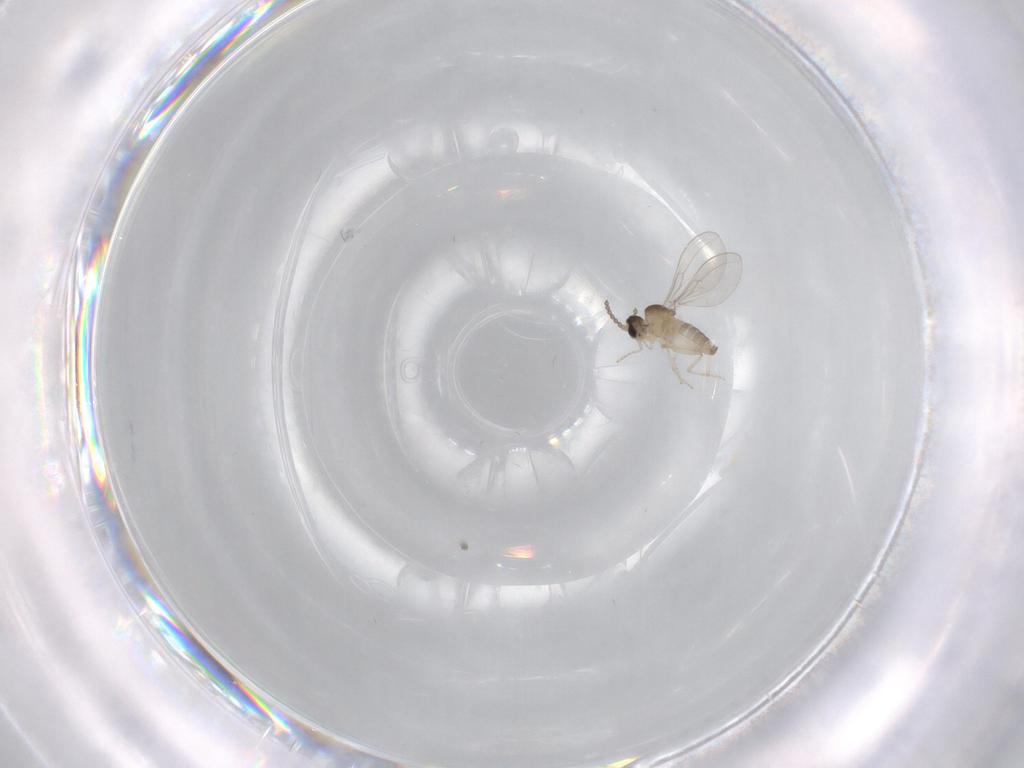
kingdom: Animalia
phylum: Arthropoda
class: Insecta
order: Diptera
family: Cecidomyiidae
